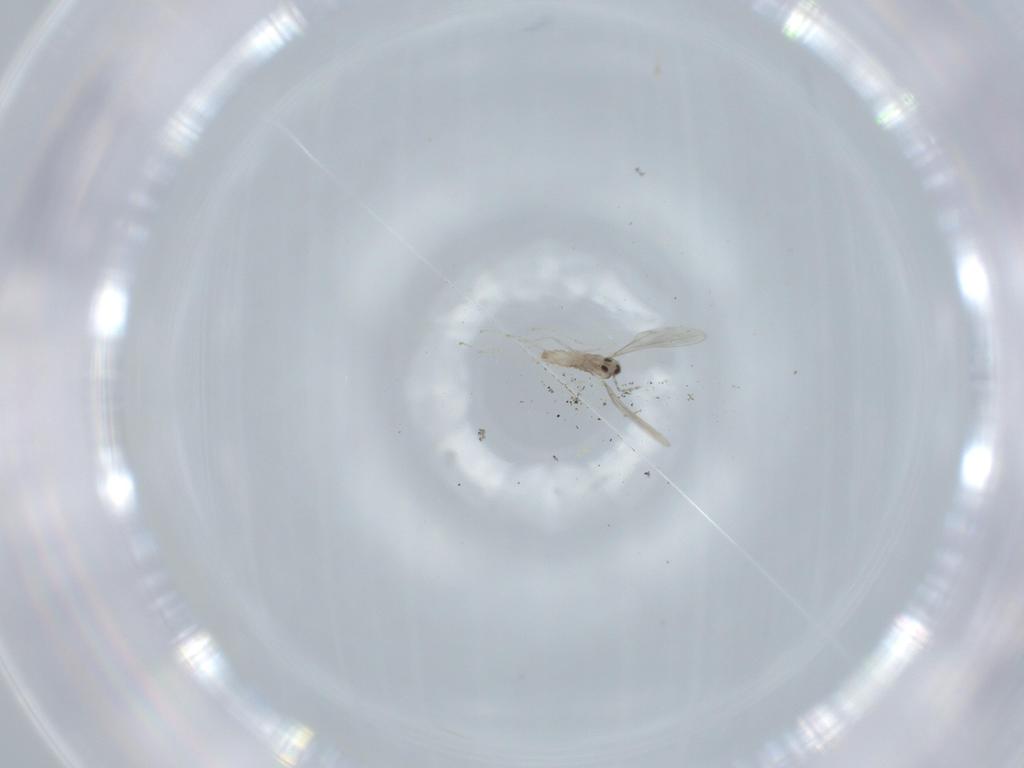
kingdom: Animalia
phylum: Arthropoda
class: Insecta
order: Diptera
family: Cecidomyiidae
